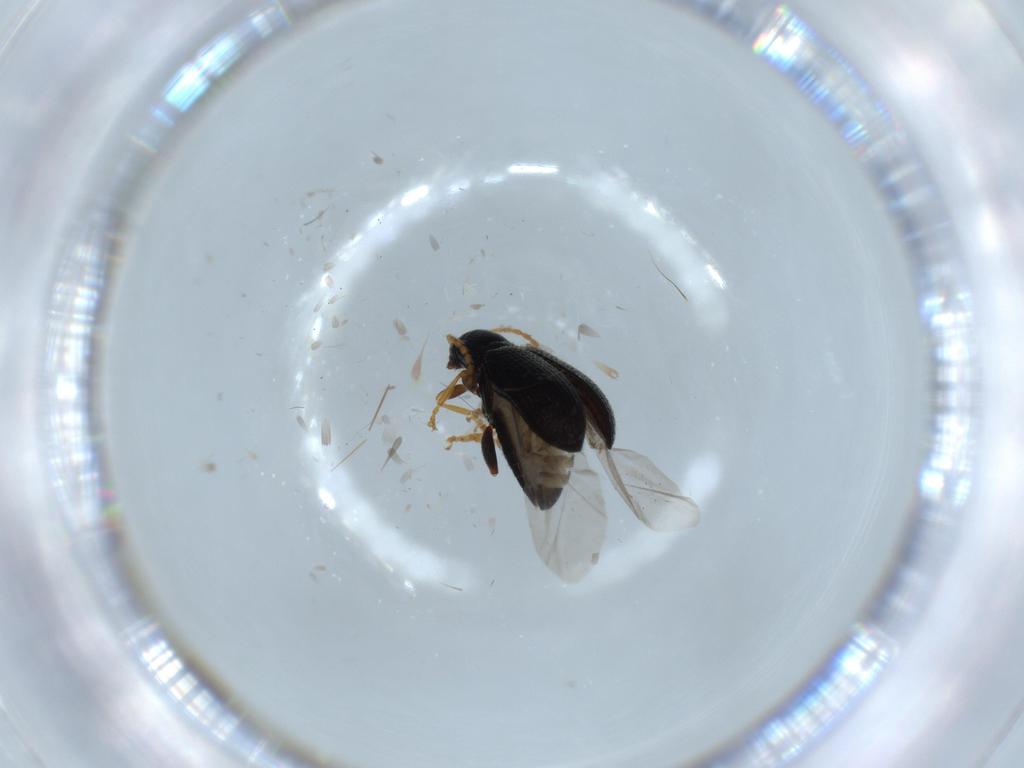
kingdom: Animalia
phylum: Arthropoda
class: Insecta
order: Coleoptera
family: Chrysomelidae
